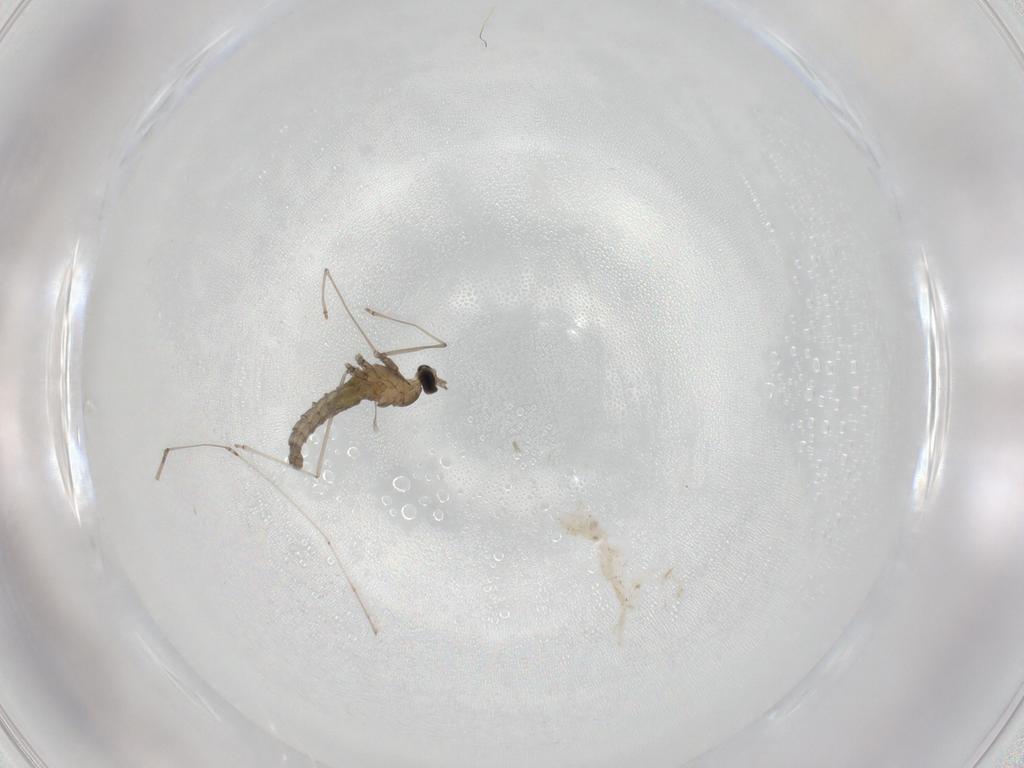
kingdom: Animalia
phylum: Arthropoda
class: Insecta
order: Diptera
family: Cecidomyiidae
